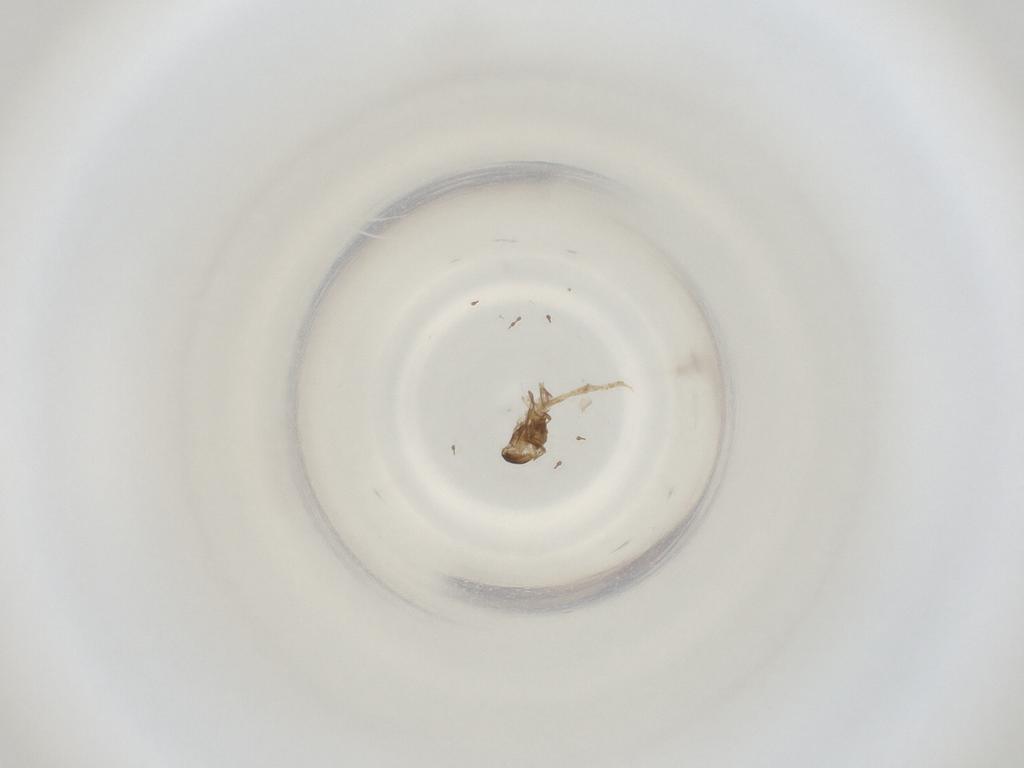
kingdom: Animalia
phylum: Arthropoda
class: Insecta
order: Diptera
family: Cecidomyiidae
